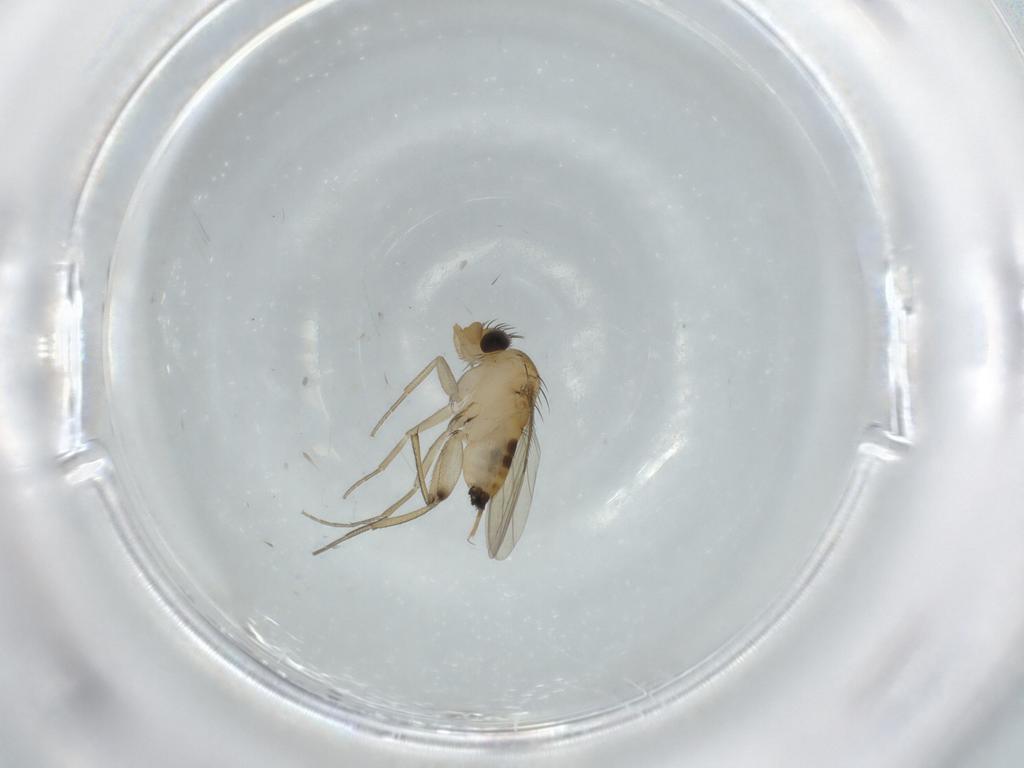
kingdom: Animalia
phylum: Arthropoda
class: Insecta
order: Diptera
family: Phoridae
